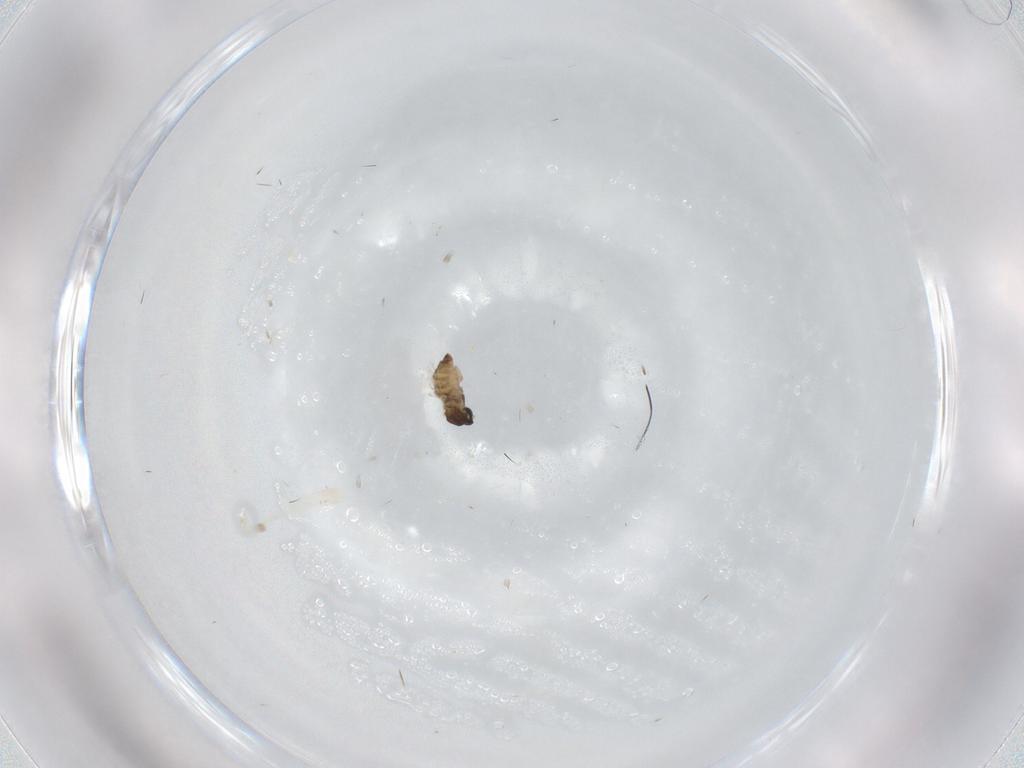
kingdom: Animalia
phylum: Arthropoda
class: Insecta
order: Diptera
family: Cecidomyiidae
